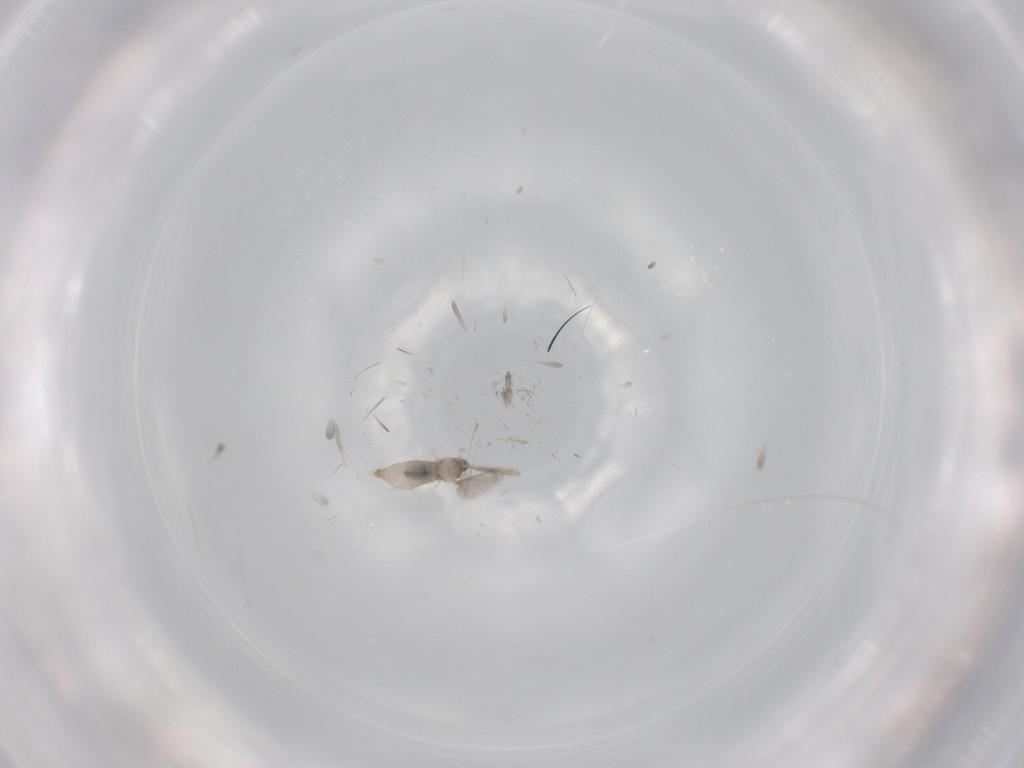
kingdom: Animalia
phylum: Arthropoda
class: Insecta
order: Diptera
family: Cecidomyiidae
